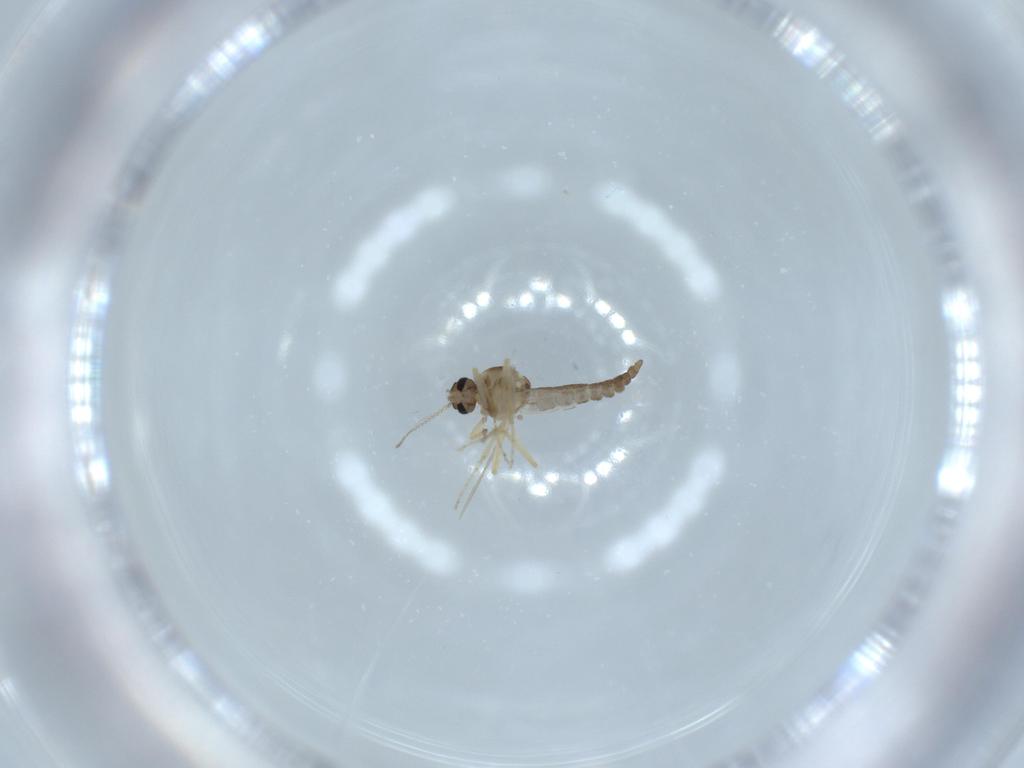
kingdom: Animalia
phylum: Arthropoda
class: Insecta
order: Diptera
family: Ceratopogonidae
